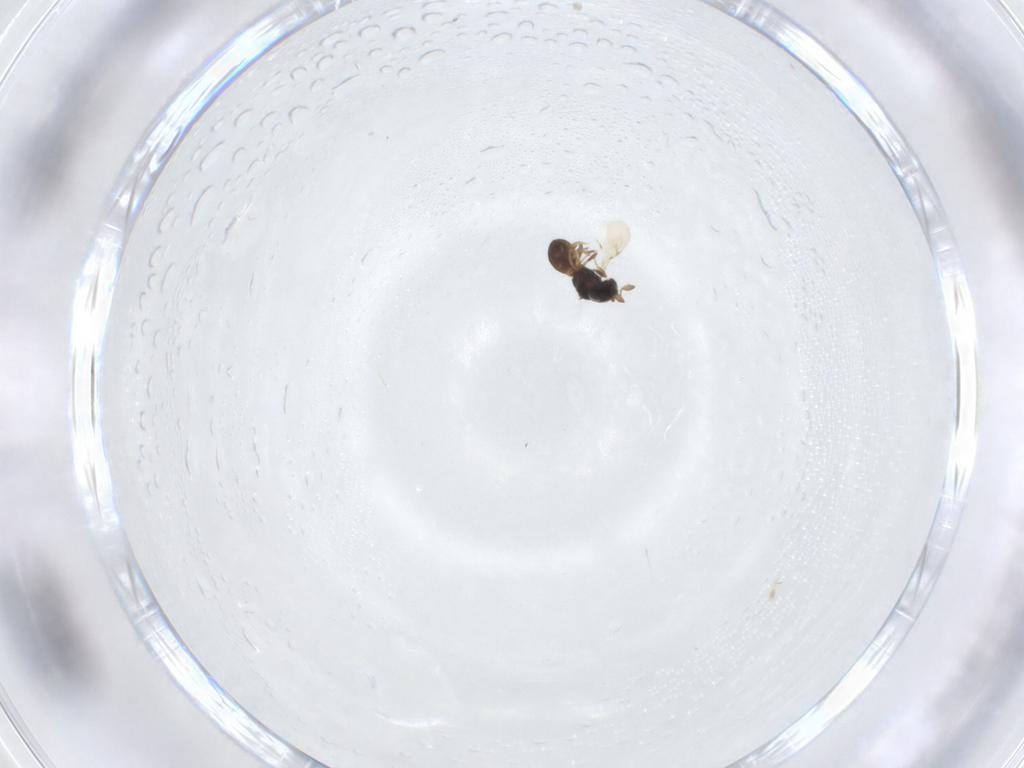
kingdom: Animalia
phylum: Arthropoda
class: Insecta
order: Hymenoptera
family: Scelionidae
